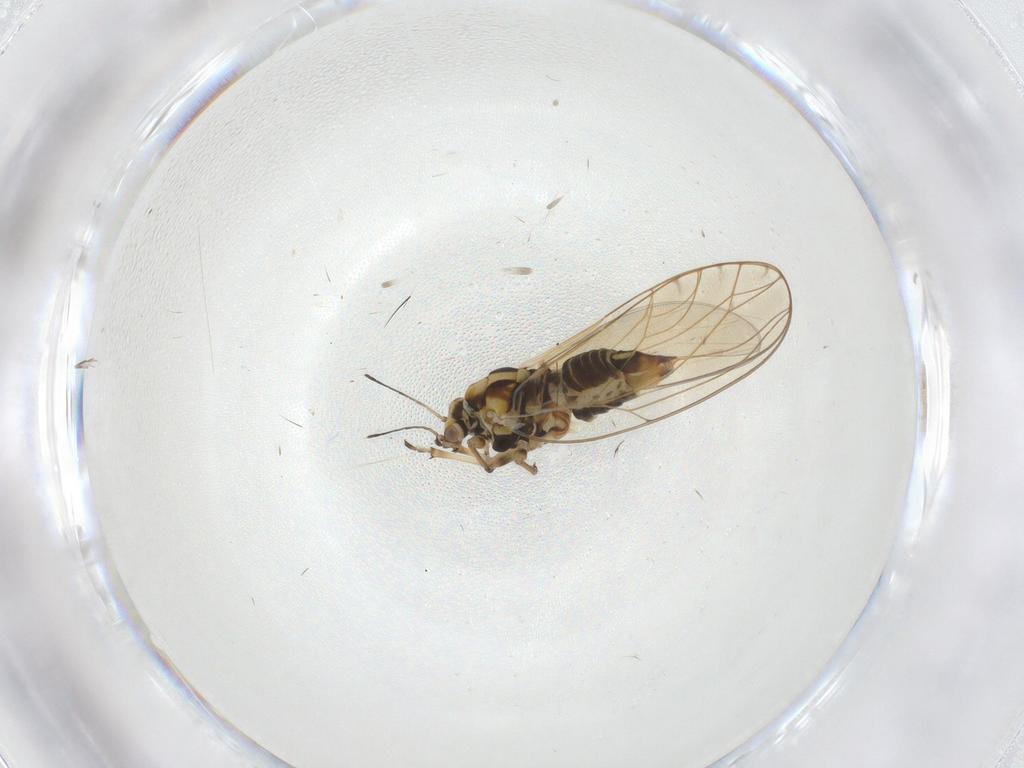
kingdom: Animalia
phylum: Arthropoda
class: Insecta
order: Hemiptera
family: Triozidae
